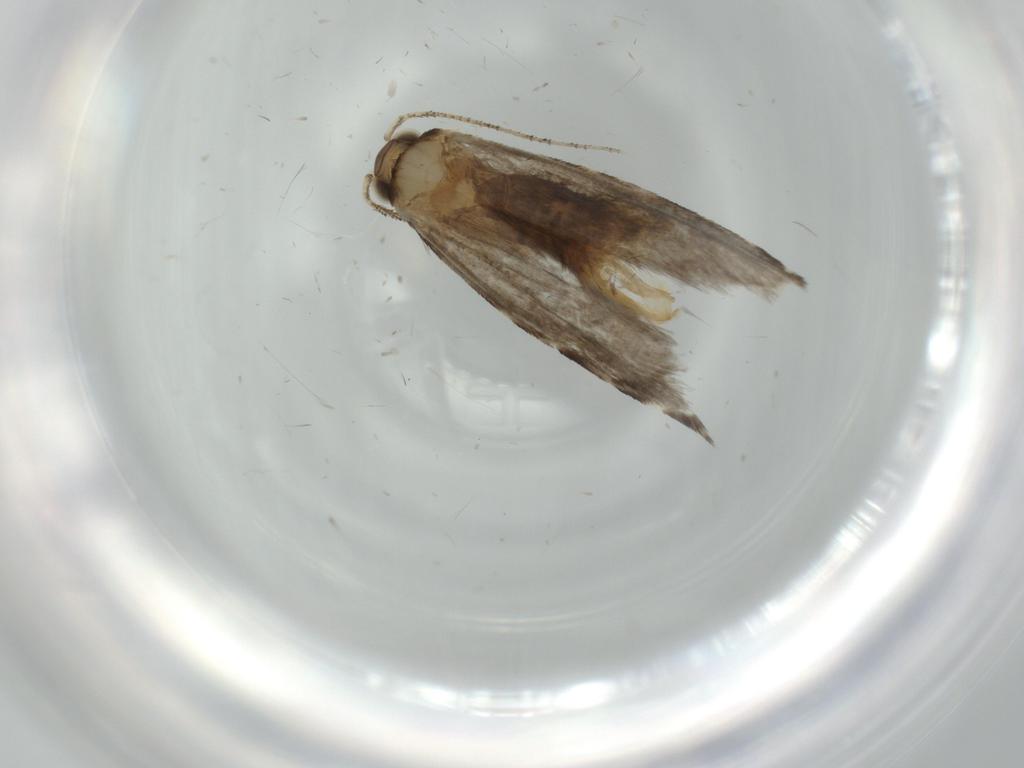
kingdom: Animalia
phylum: Arthropoda
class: Insecta
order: Lepidoptera
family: Tineidae
